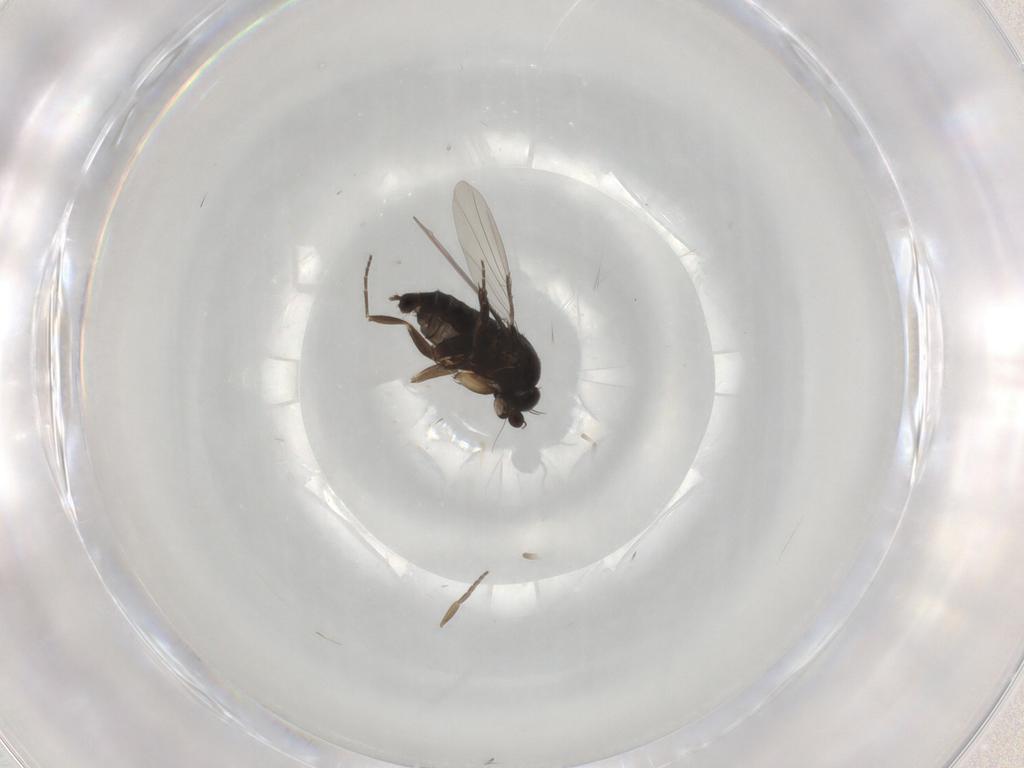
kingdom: Animalia
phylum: Arthropoda
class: Insecta
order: Diptera
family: Phoridae
